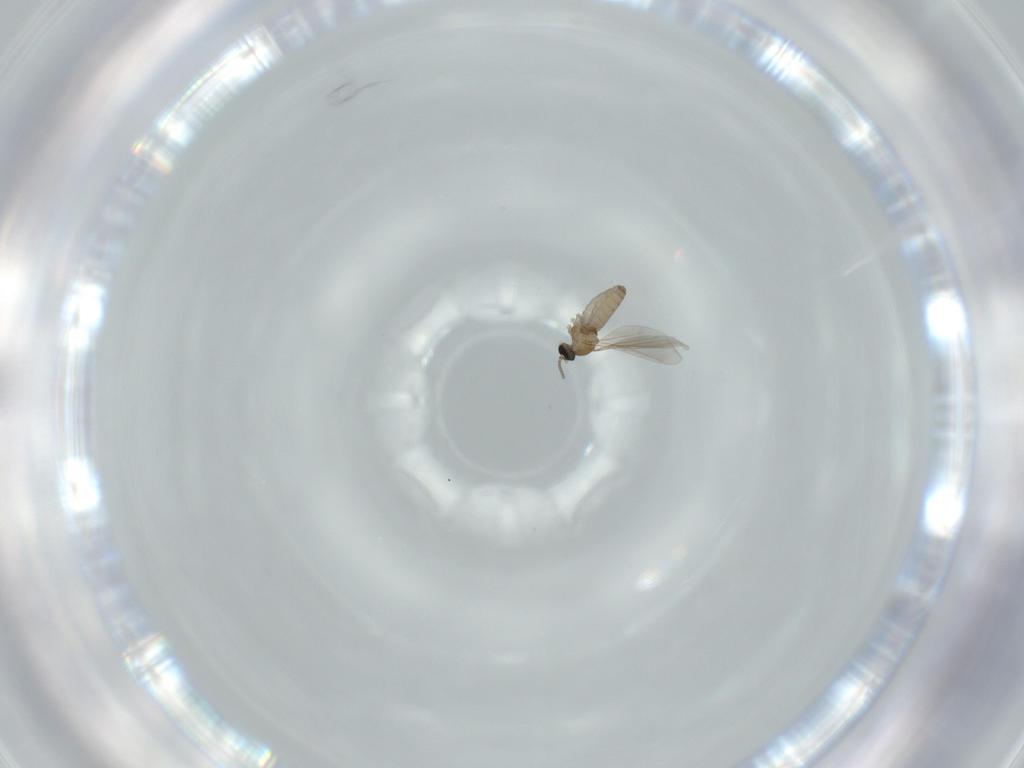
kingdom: Animalia
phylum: Arthropoda
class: Insecta
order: Diptera
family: Cecidomyiidae
